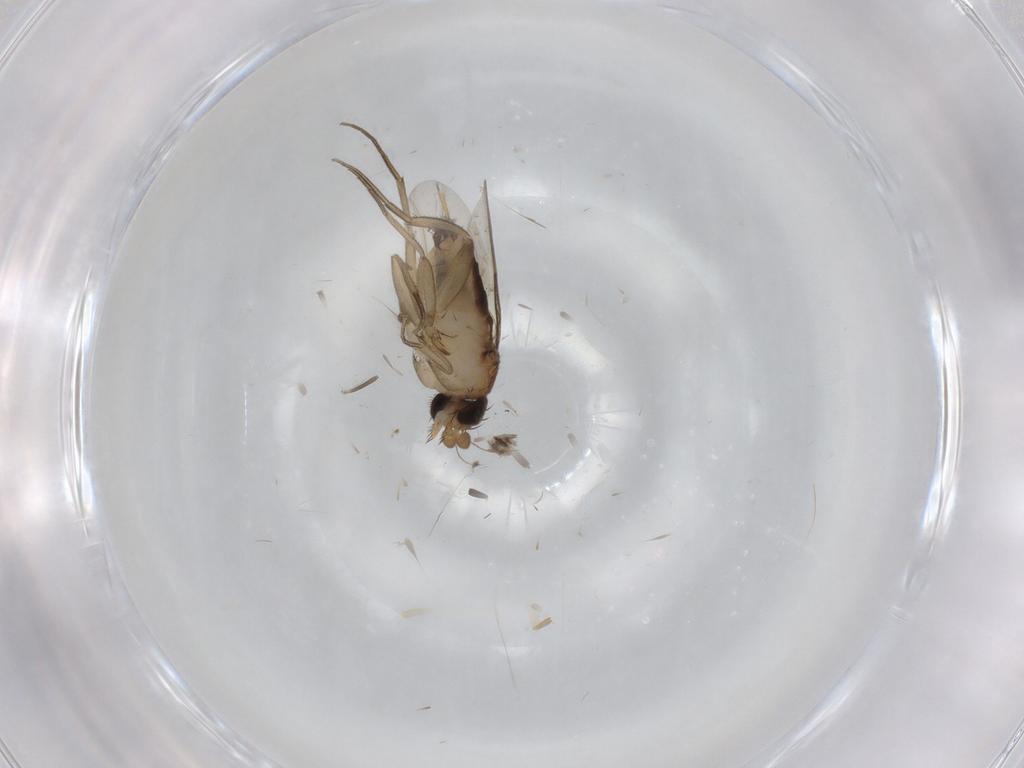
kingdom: Animalia
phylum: Arthropoda
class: Insecta
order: Diptera
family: Phoridae
